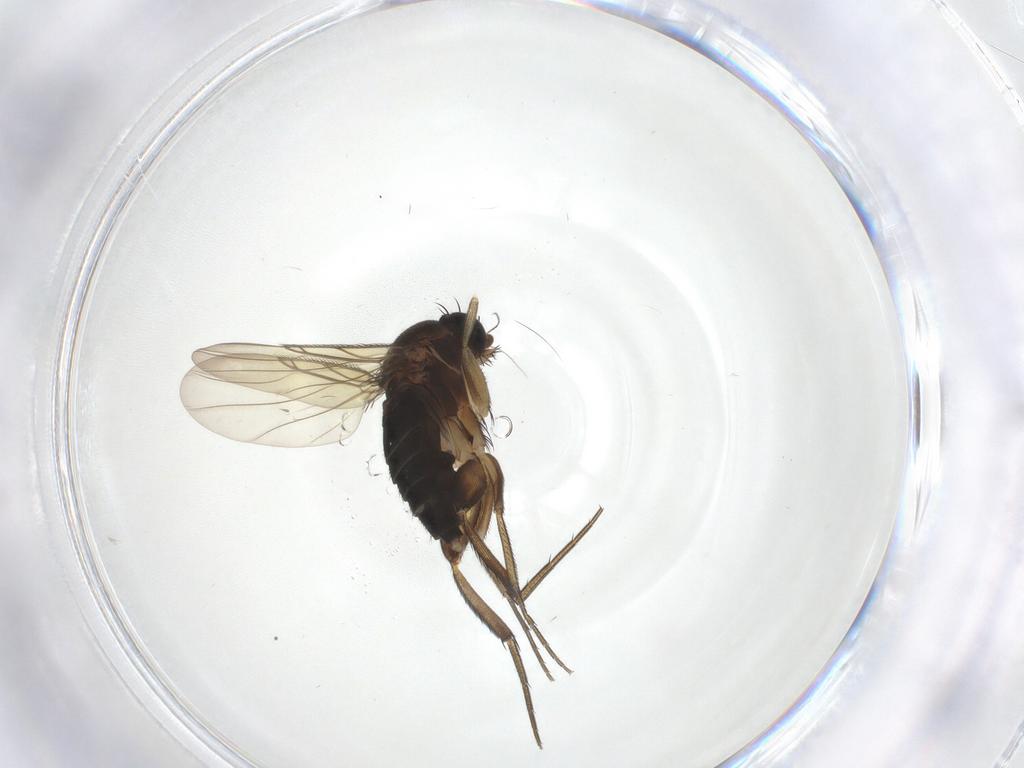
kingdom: Animalia
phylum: Arthropoda
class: Insecta
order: Diptera
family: Phoridae
